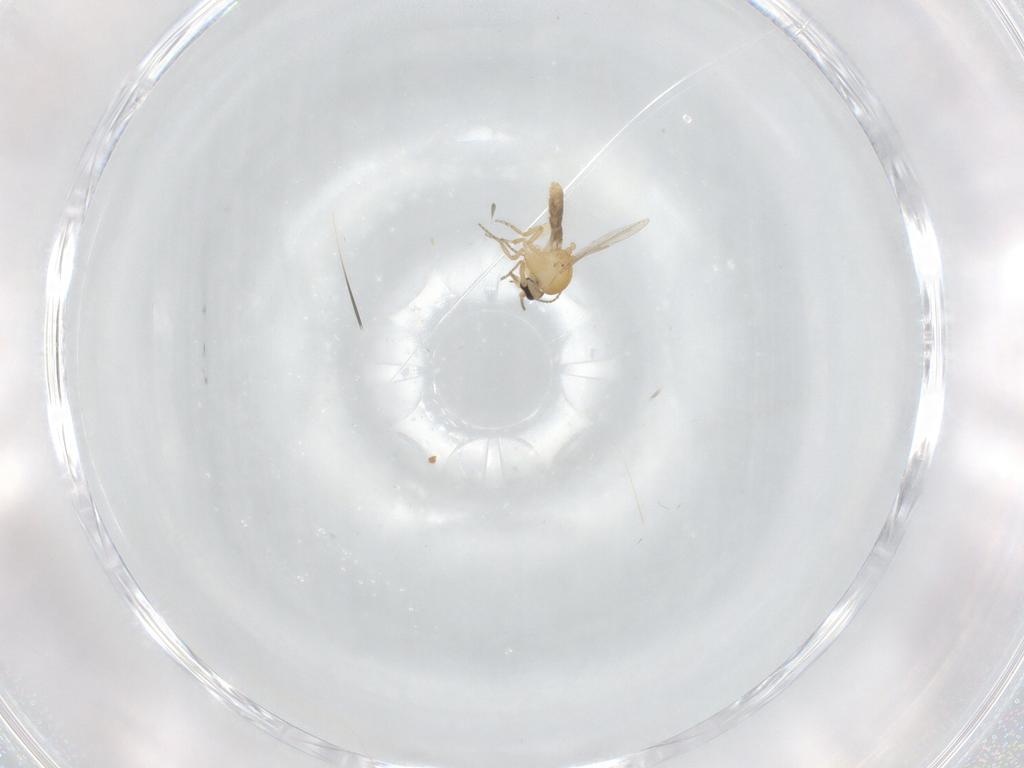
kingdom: Animalia
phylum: Arthropoda
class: Insecta
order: Diptera
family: Ceratopogonidae
